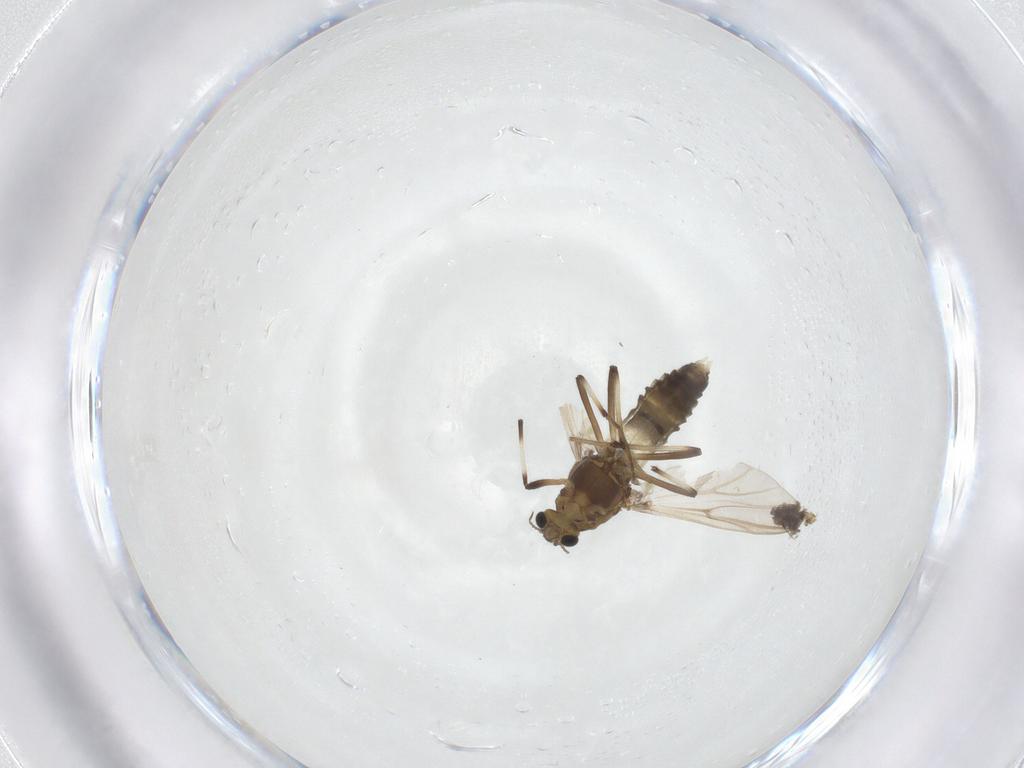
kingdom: Animalia
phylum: Arthropoda
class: Insecta
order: Diptera
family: Chironomidae
